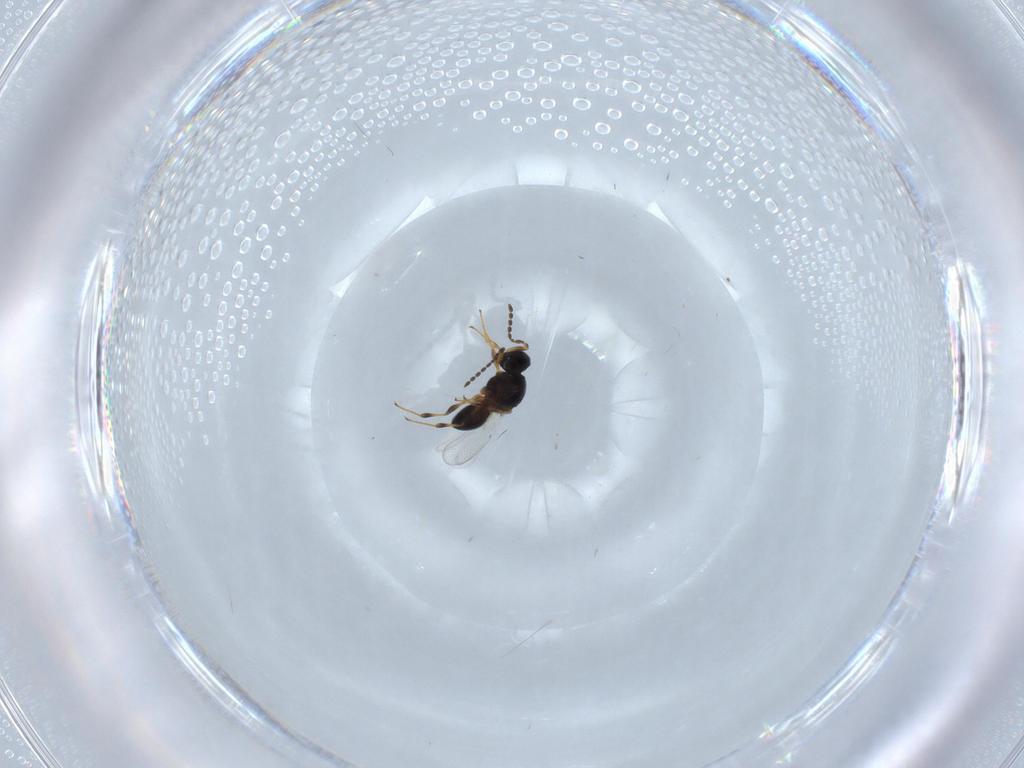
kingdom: Animalia
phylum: Arthropoda
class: Insecta
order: Hymenoptera
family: Platygastridae
